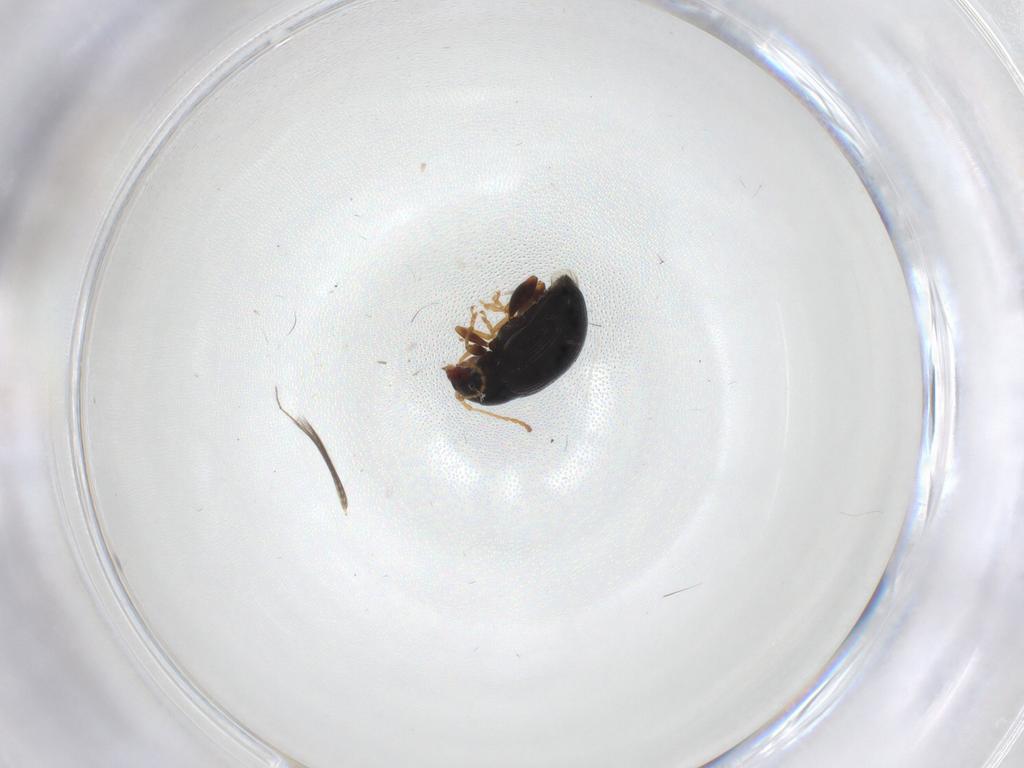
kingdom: Animalia
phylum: Arthropoda
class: Insecta
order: Coleoptera
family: Chrysomelidae
